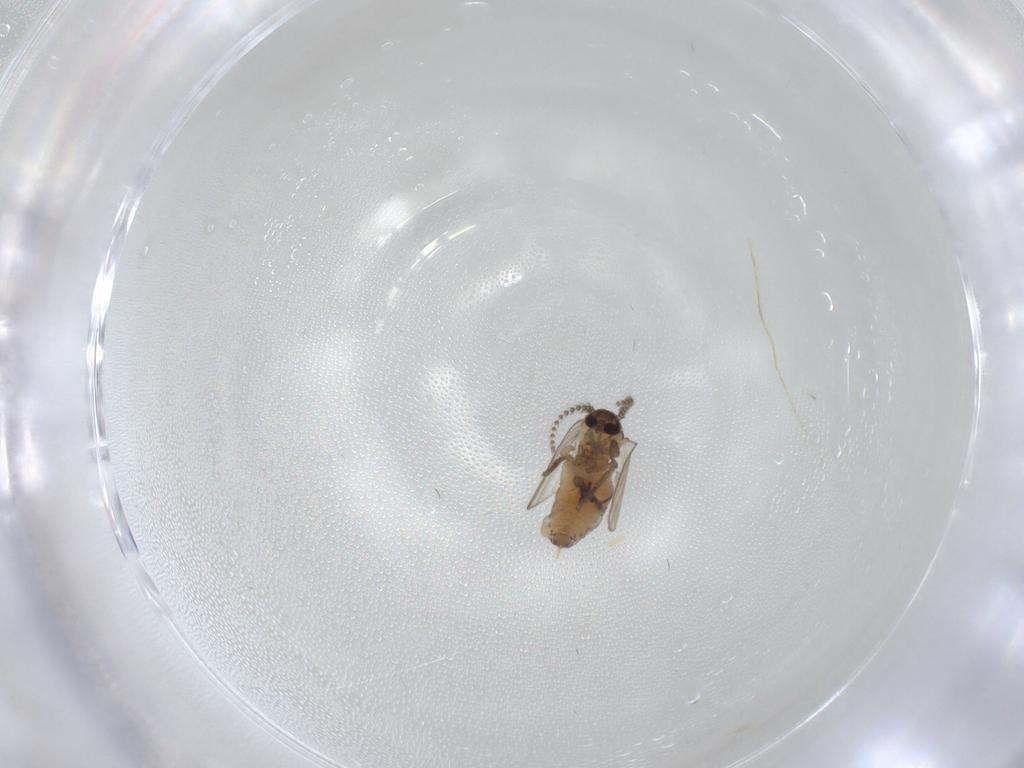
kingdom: Animalia
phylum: Arthropoda
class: Insecta
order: Diptera
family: Psychodidae
